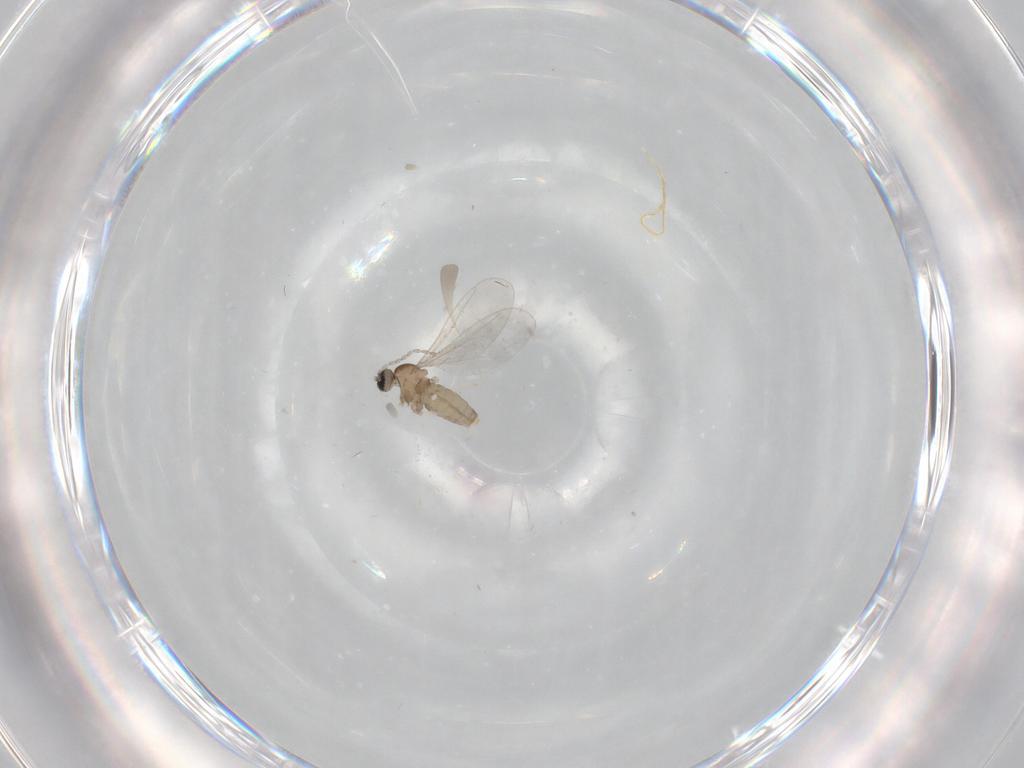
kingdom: Animalia
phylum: Arthropoda
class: Insecta
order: Diptera
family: Cecidomyiidae
